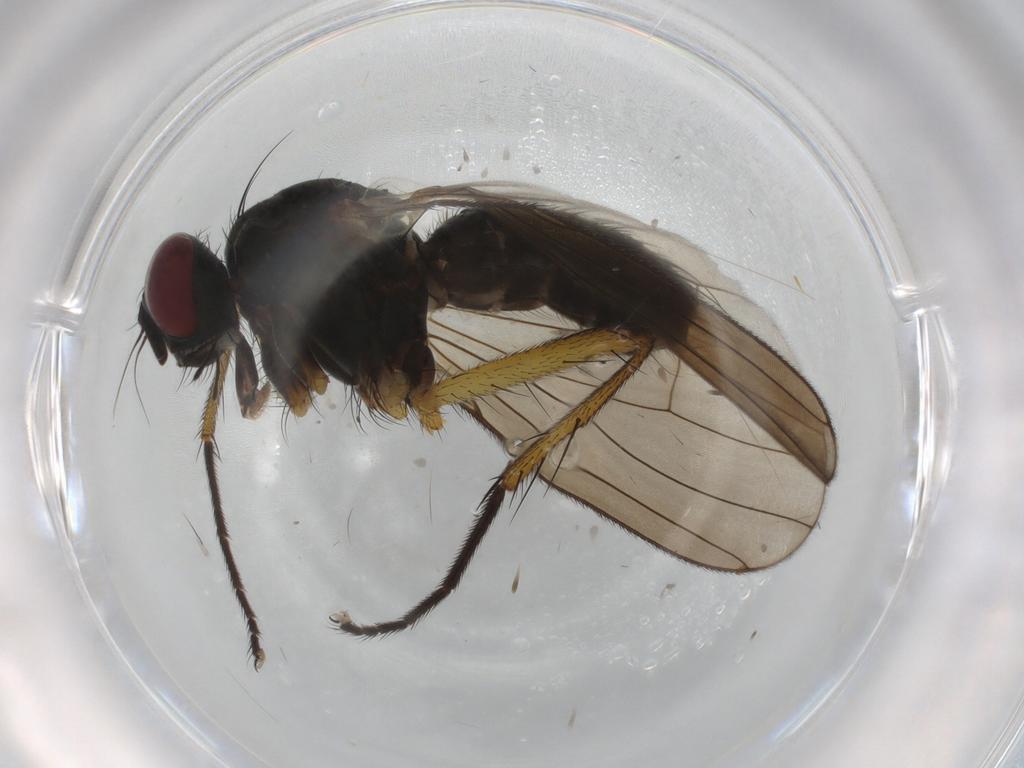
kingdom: Animalia
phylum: Arthropoda
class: Insecta
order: Diptera
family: Muscidae
